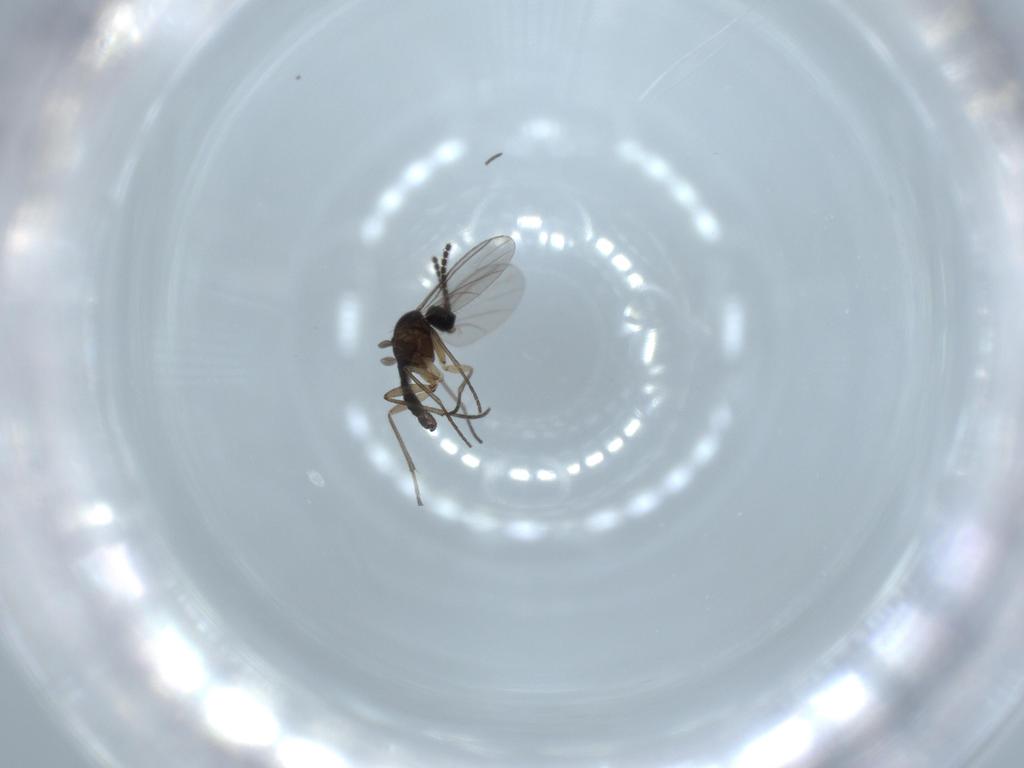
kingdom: Animalia
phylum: Arthropoda
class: Insecta
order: Diptera
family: Sciaridae
